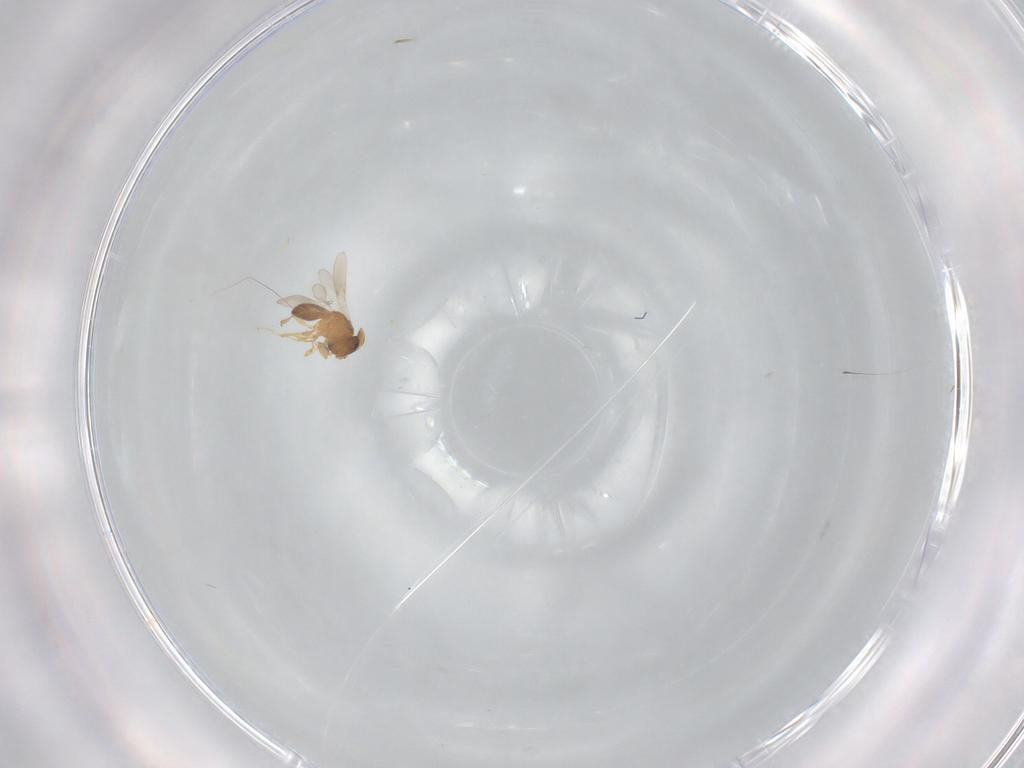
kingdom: Animalia
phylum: Arthropoda
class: Insecta
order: Hymenoptera
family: Scelionidae
